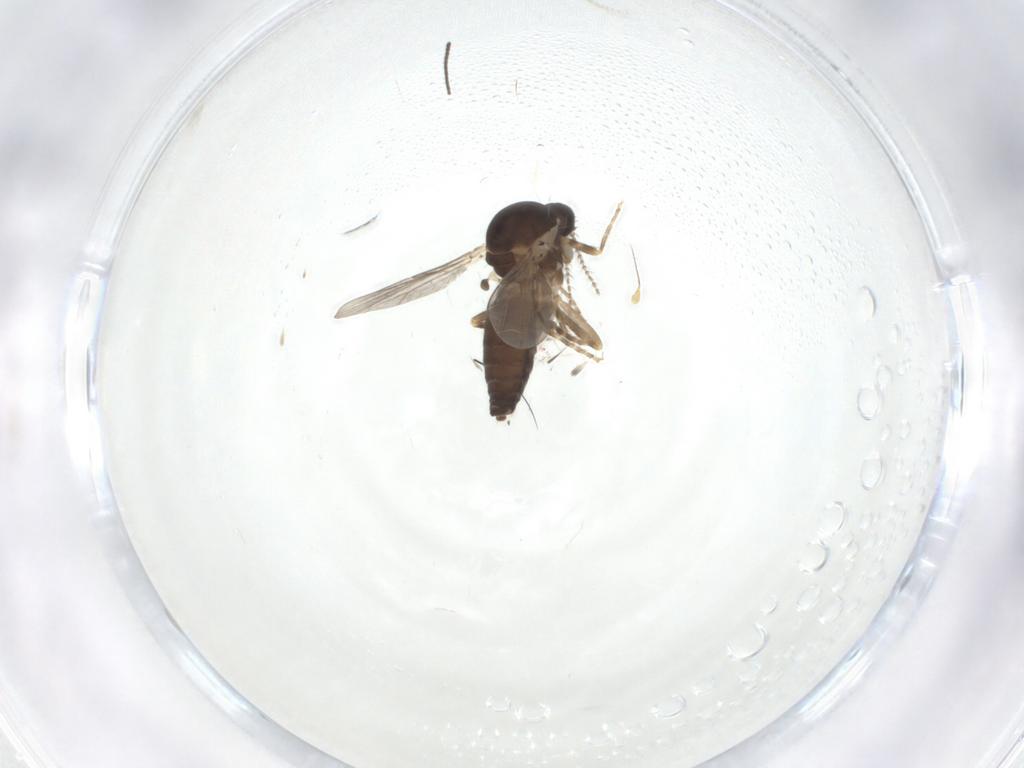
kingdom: Animalia
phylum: Arthropoda
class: Insecta
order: Diptera
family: Ceratopogonidae
